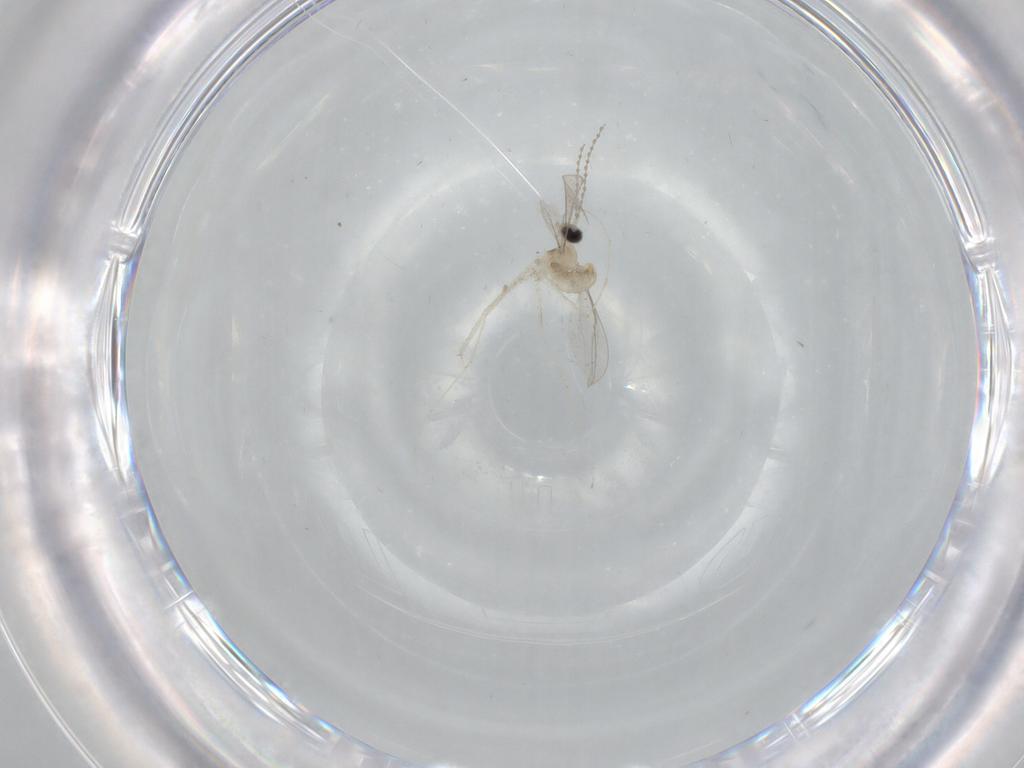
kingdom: Animalia
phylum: Arthropoda
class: Insecta
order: Diptera
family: Cecidomyiidae
